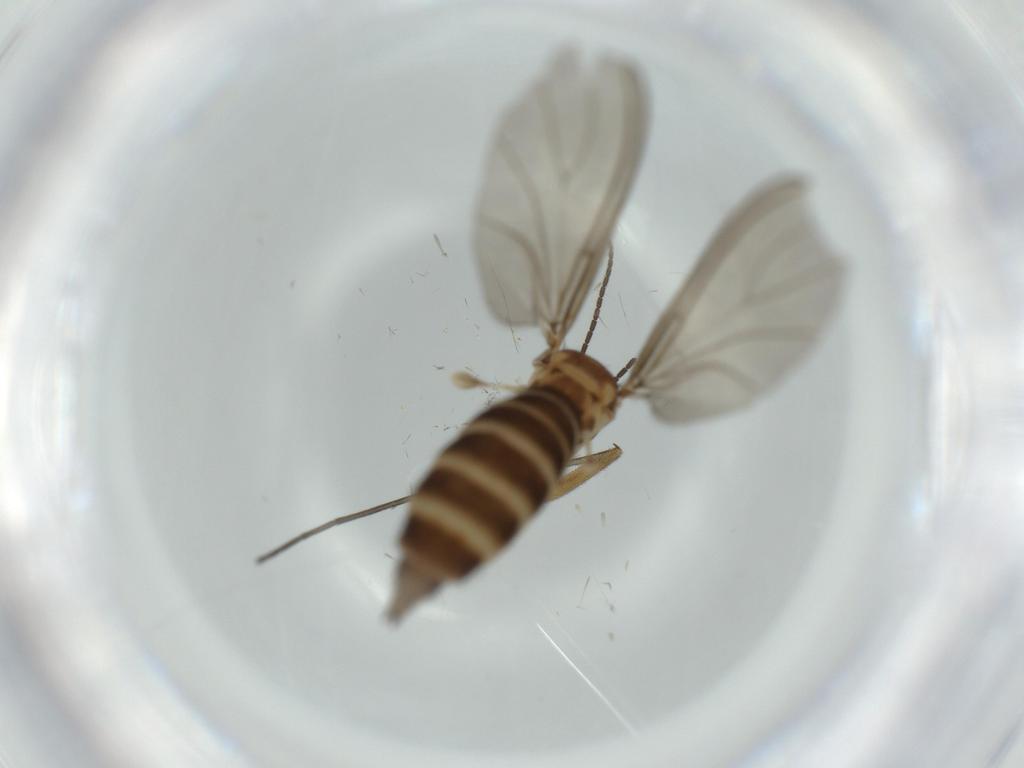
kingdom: Animalia
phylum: Arthropoda
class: Insecta
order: Diptera
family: Sciaridae
